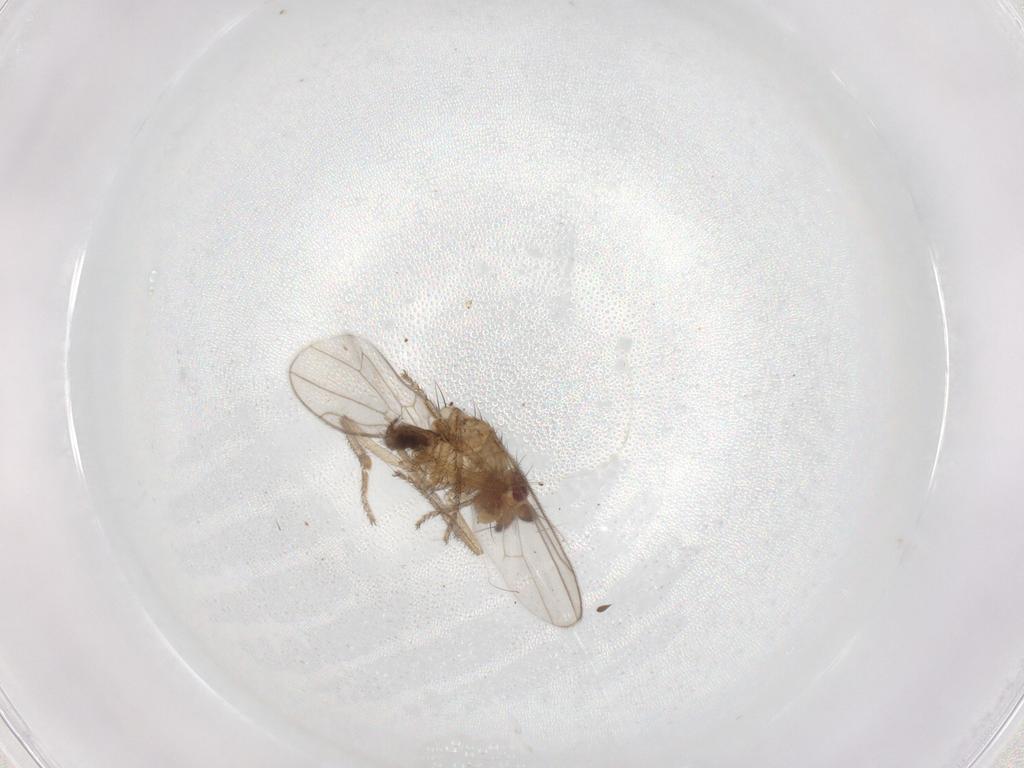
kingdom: Animalia
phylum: Arthropoda
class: Insecta
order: Diptera
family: Sphaeroceridae
